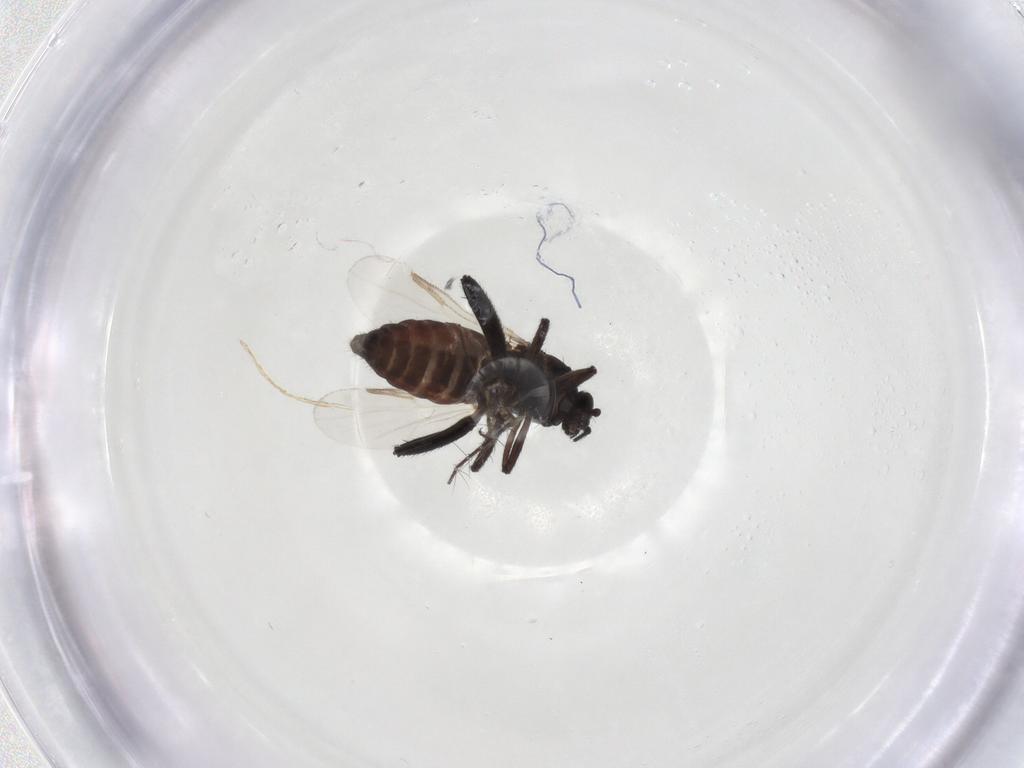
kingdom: Animalia
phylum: Arthropoda
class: Insecta
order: Diptera
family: Ceratopogonidae
